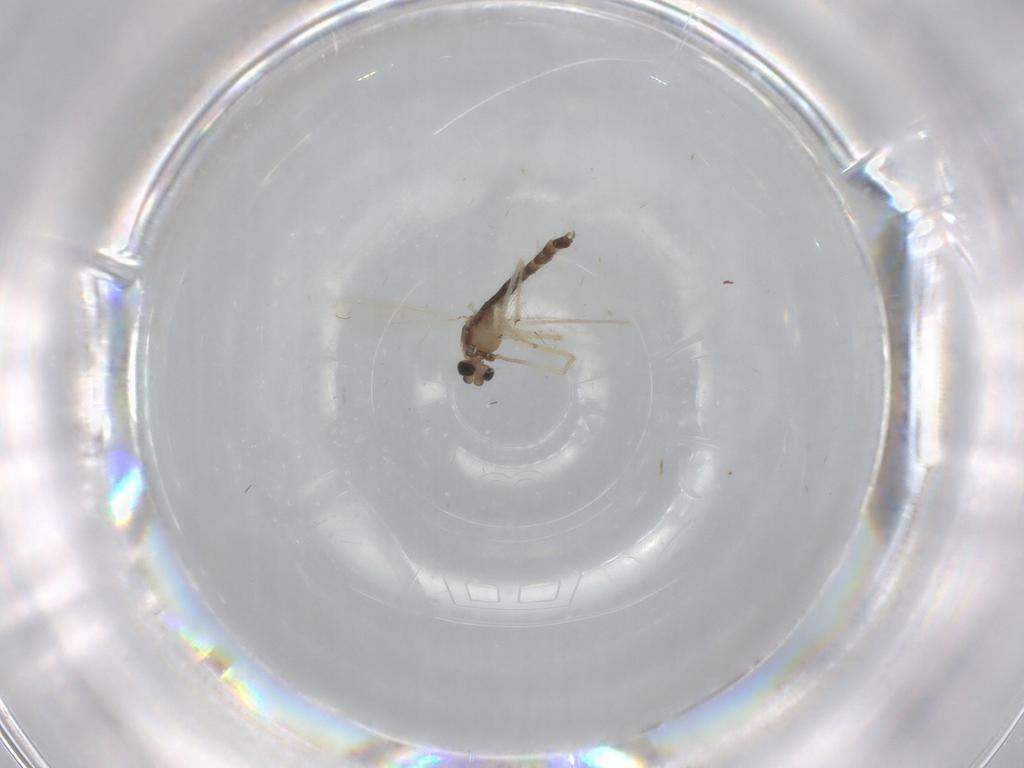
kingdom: Animalia
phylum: Arthropoda
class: Insecta
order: Diptera
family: Chironomidae
